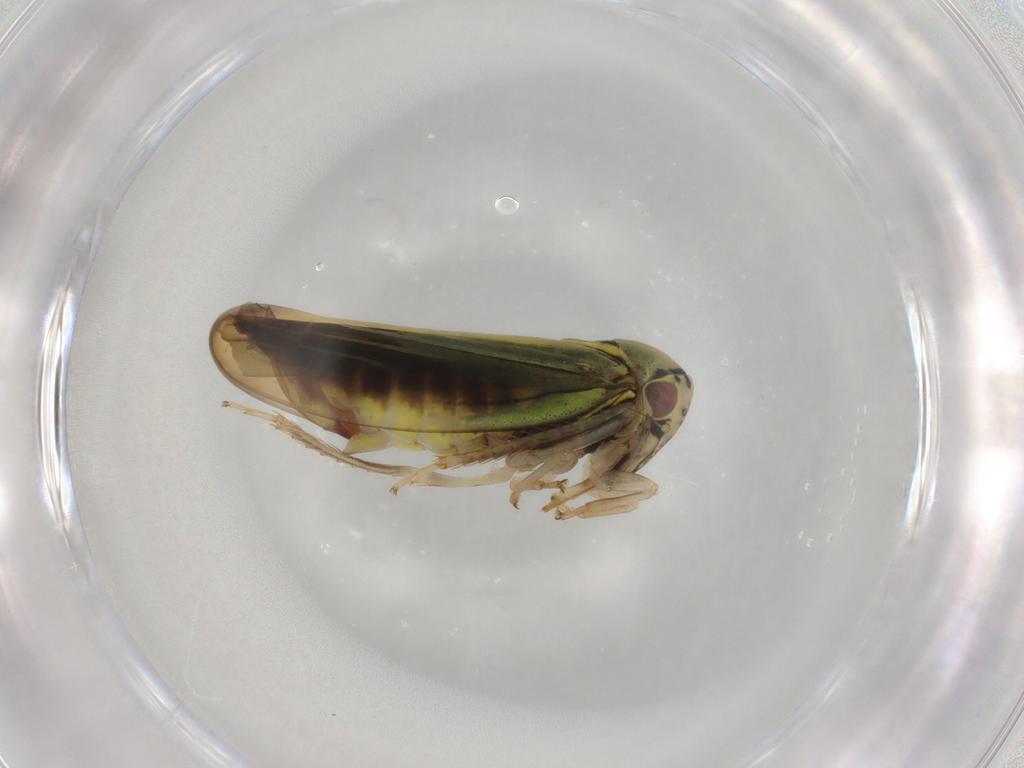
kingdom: Animalia
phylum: Arthropoda
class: Insecta
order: Hemiptera
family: Cicadellidae
